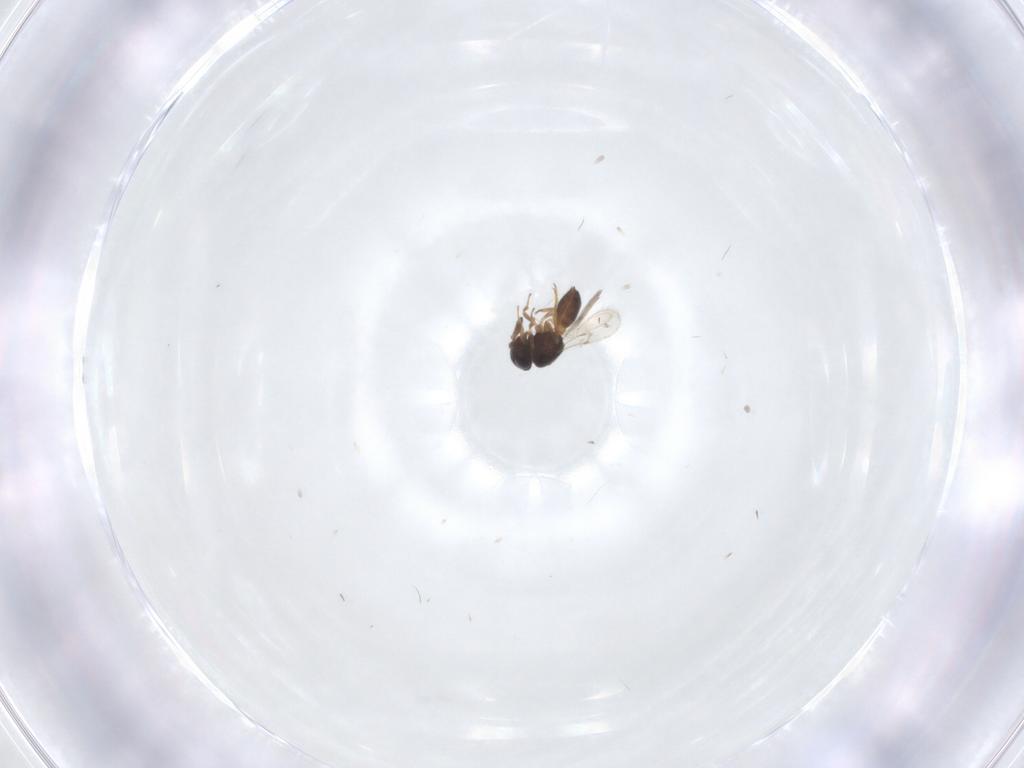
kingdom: Animalia
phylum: Arthropoda
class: Insecta
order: Hymenoptera
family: Scelionidae
